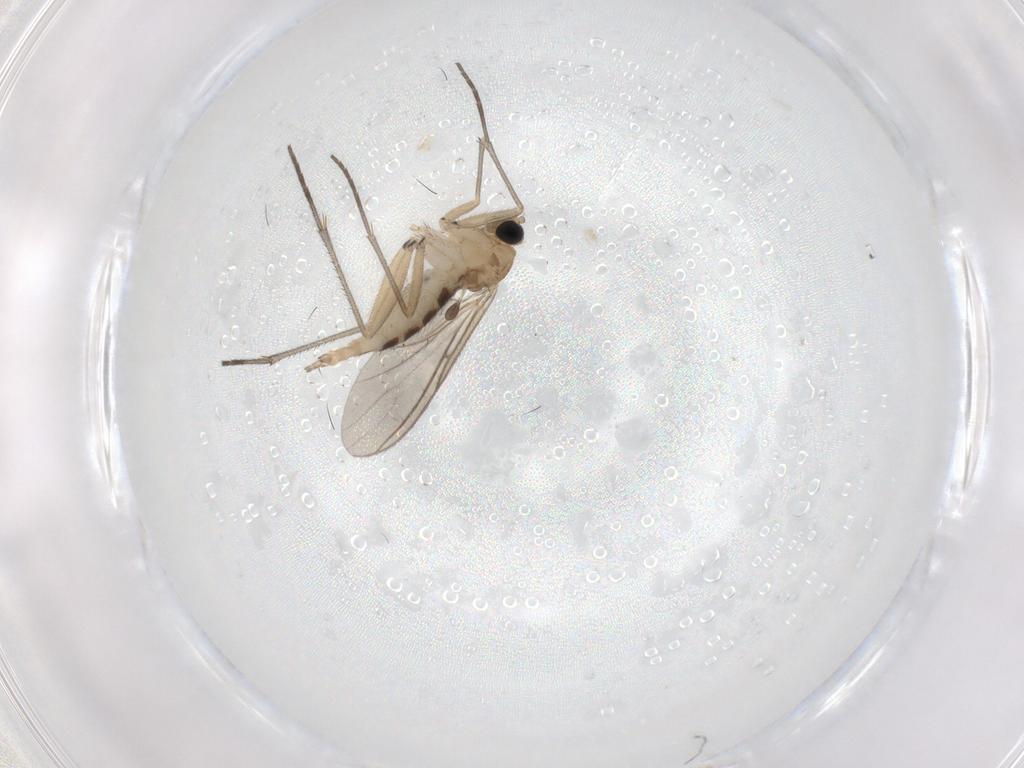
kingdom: Animalia
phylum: Arthropoda
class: Insecta
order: Diptera
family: Sciaridae
